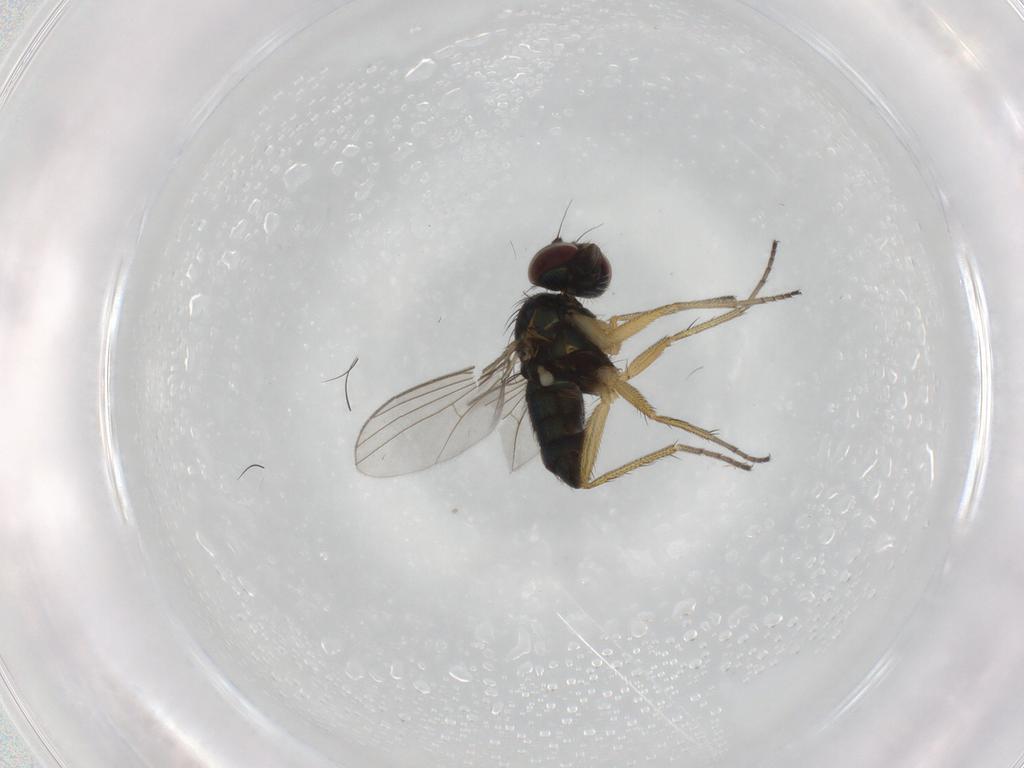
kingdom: Animalia
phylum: Arthropoda
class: Insecta
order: Diptera
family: Dolichopodidae
